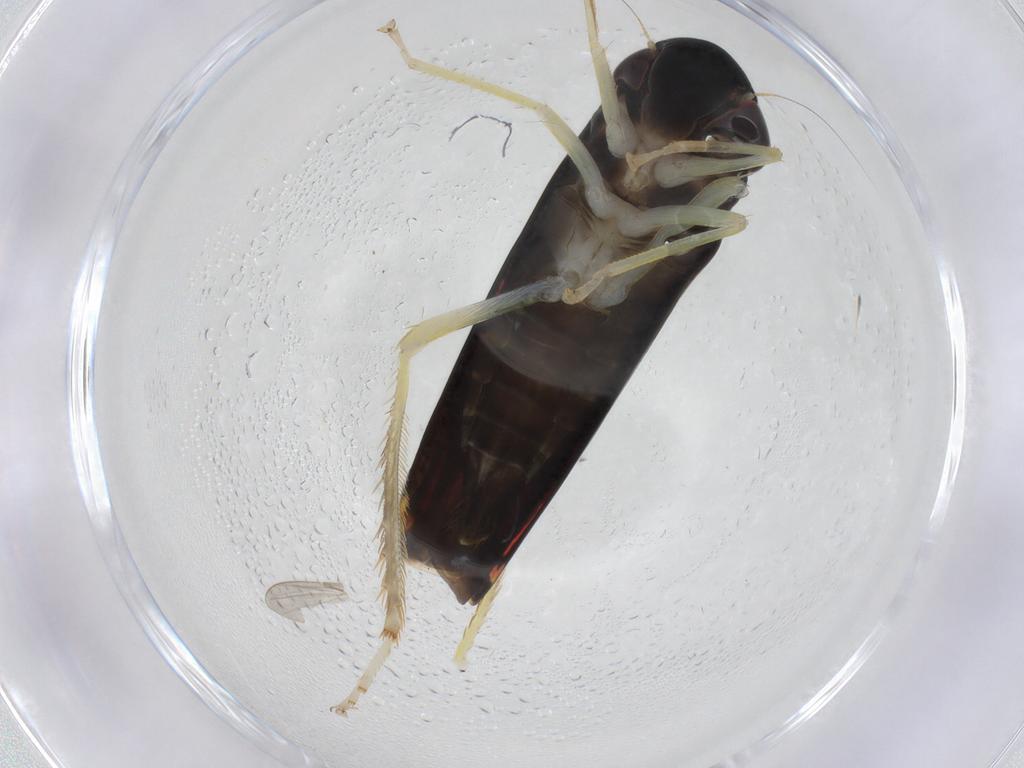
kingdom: Animalia
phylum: Arthropoda
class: Insecta
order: Hemiptera
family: Cicadellidae
